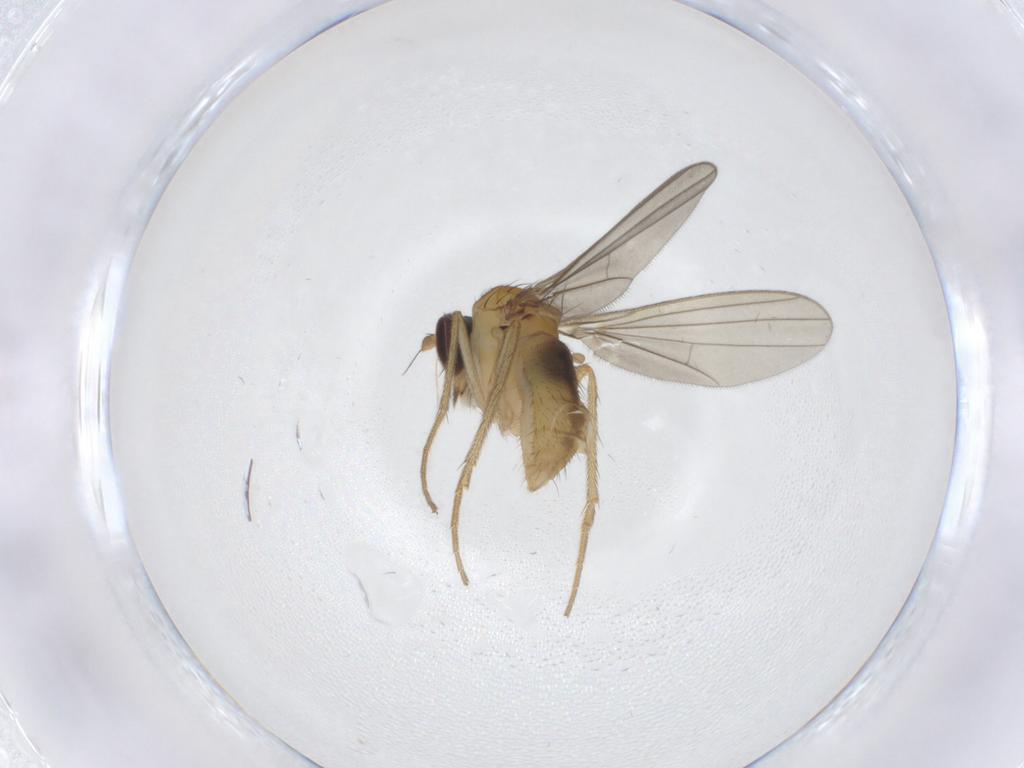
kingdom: Animalia
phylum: Arthropoda
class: Insecta
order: Diptera
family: Dolichopodidae
